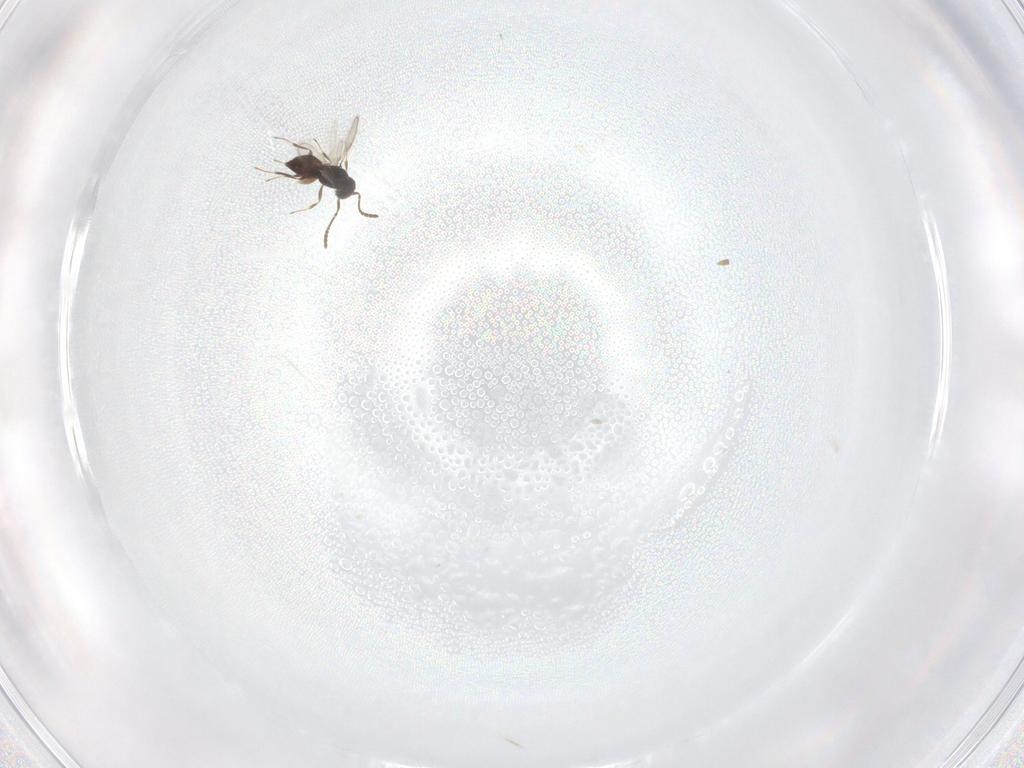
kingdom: Animalia
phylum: Arthropoda
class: Insecta
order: Hymenoptera
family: Scelionidae
